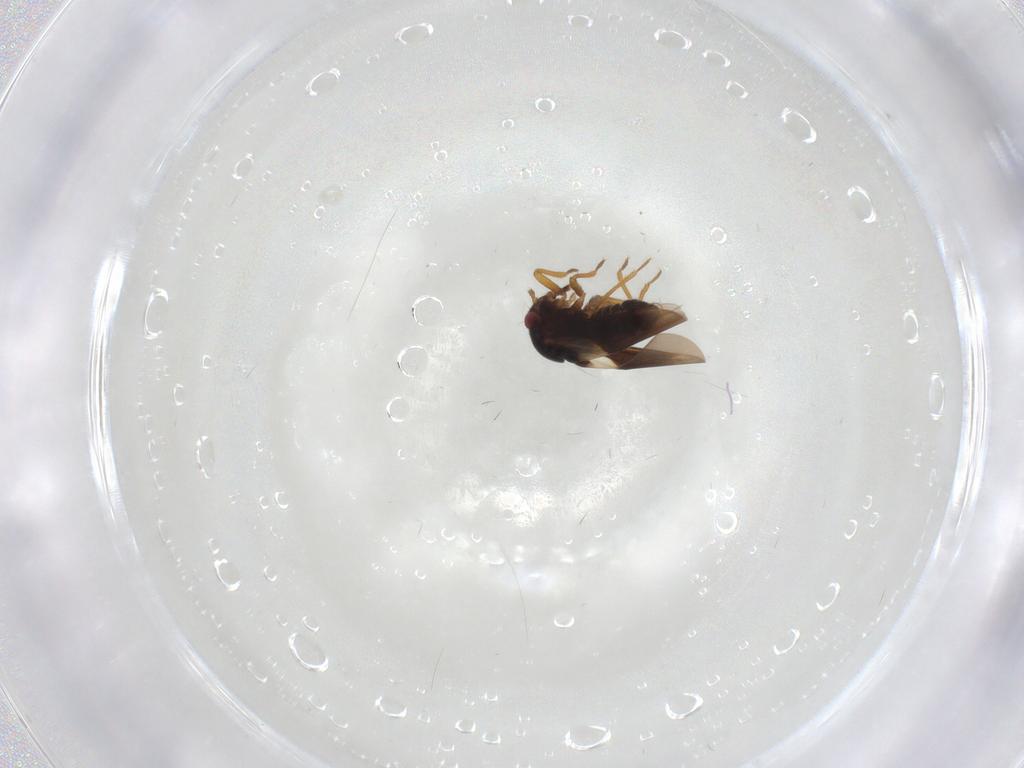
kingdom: Animalia
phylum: Arthropoda
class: Insecta
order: Hemiptera
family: Schizopteridae
